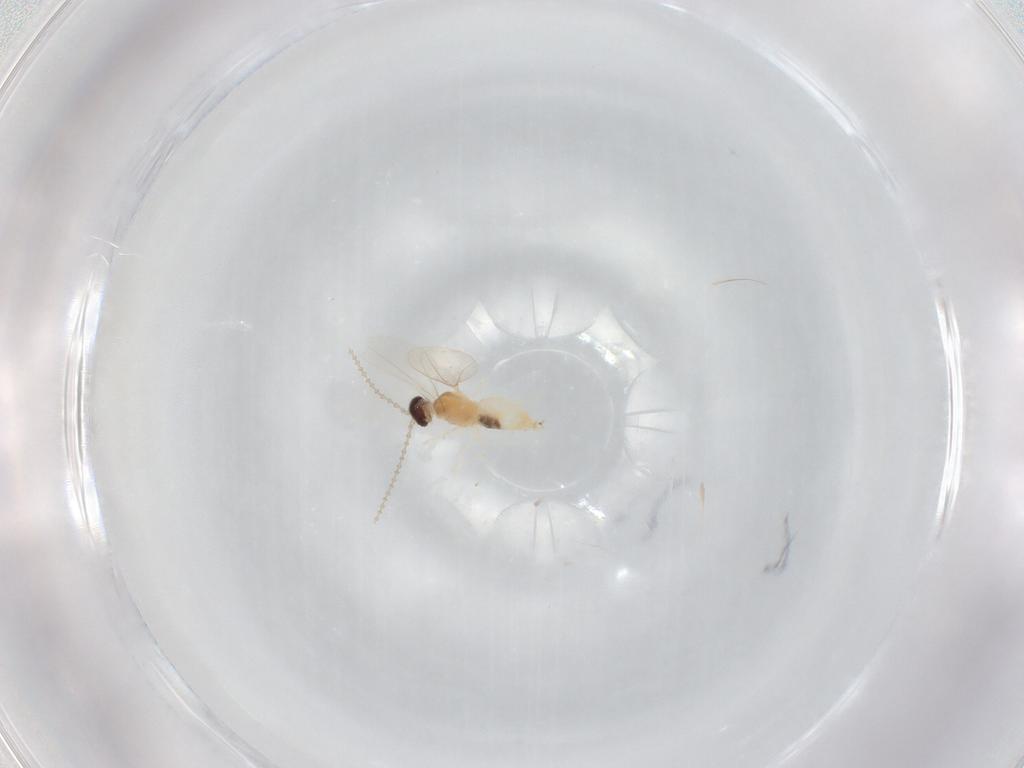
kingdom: Animalia
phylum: Arthropoda
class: Insecta
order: Diptera
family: Cecidomyiidae
